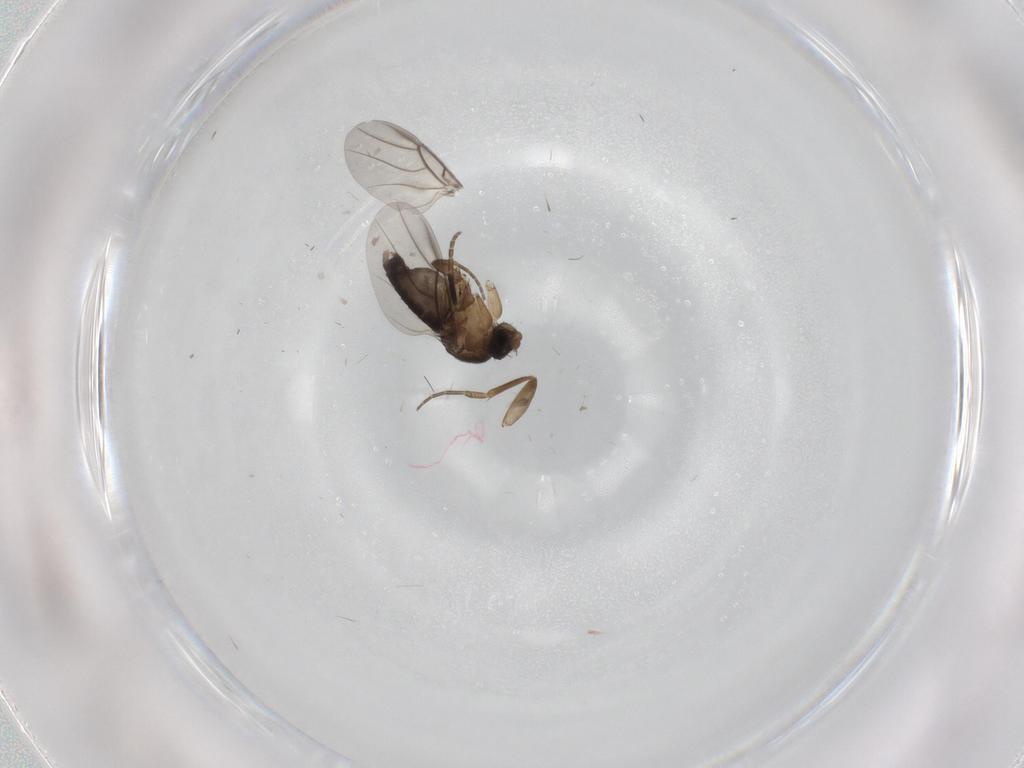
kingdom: Animalia
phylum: Arthropoda
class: Insecta
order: Diptera
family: Phoridae
